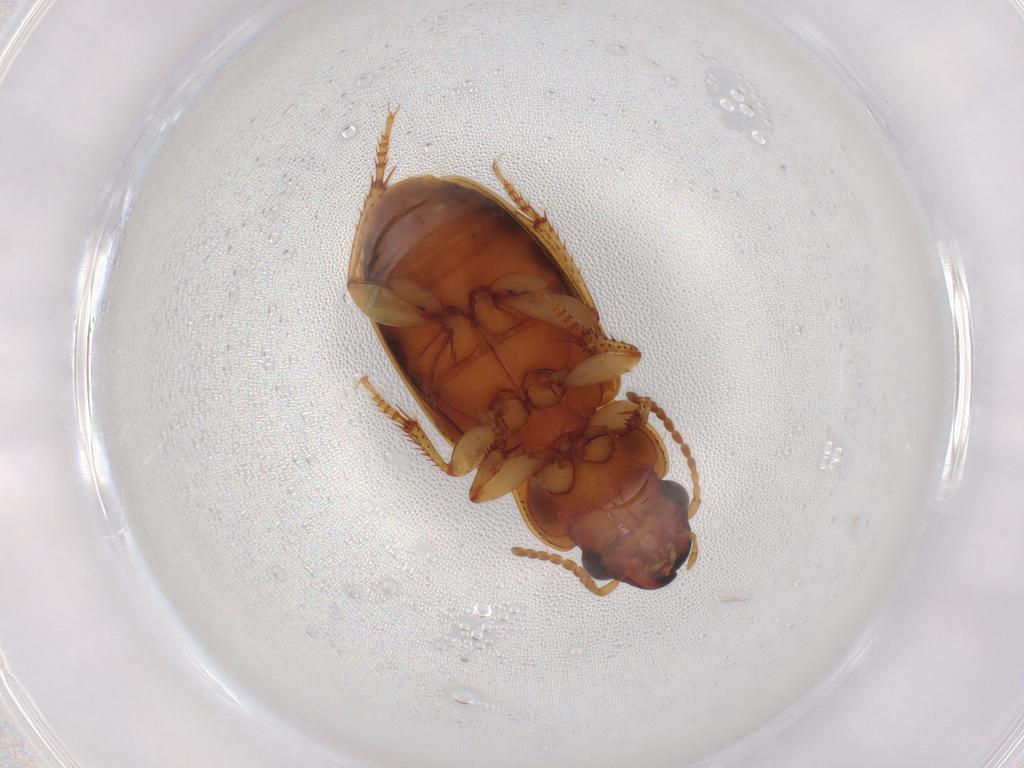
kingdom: Animalia
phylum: Arthropoda
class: Insecta
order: Coleoptera
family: Carabidae
